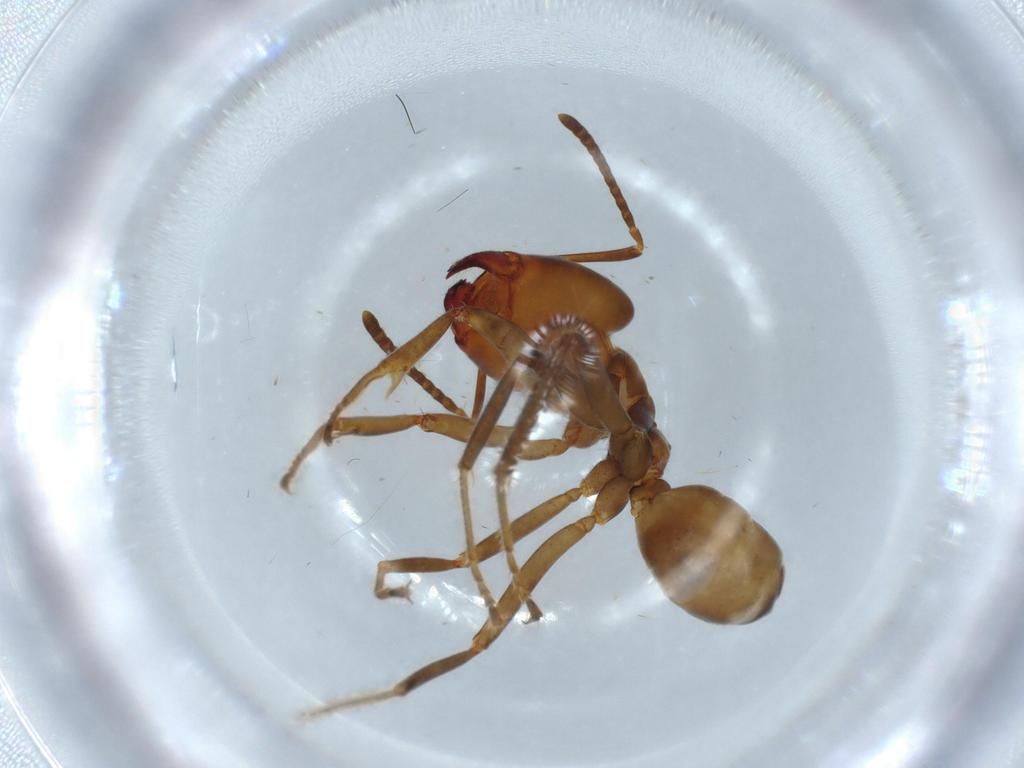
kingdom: Animalia
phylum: Arthropoda
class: Insecta
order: Hymenoptera
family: Formicidae
